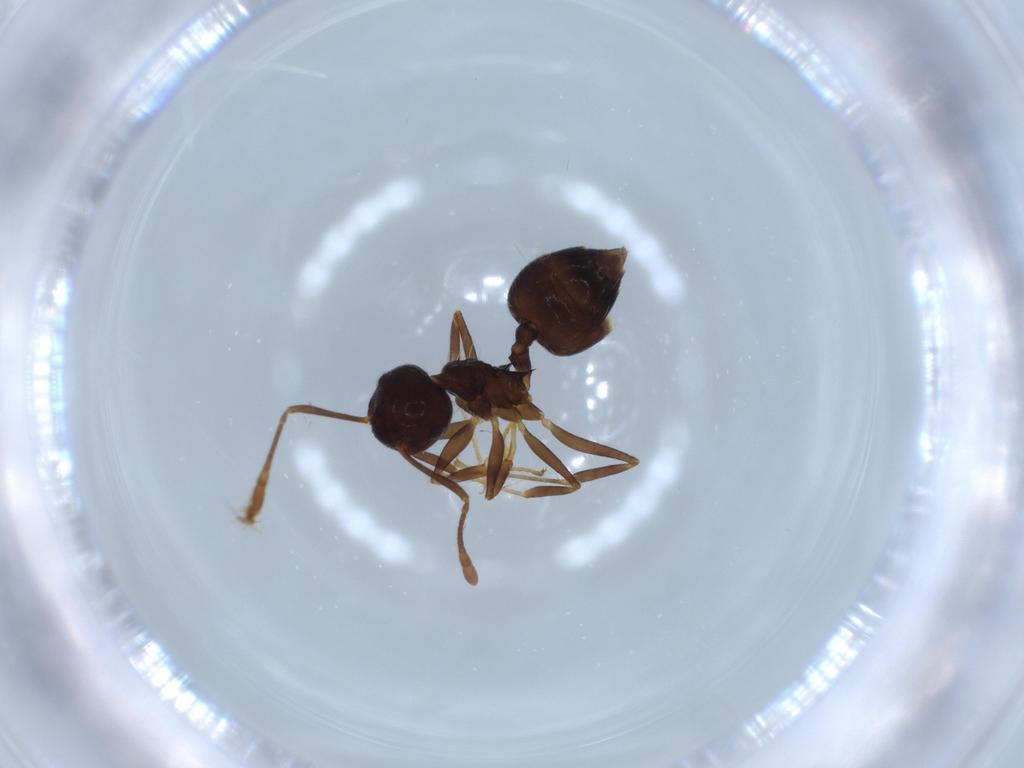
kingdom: Animalia
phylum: Arthropoda
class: Insecta
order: Hymenoptera
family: Formicidae
